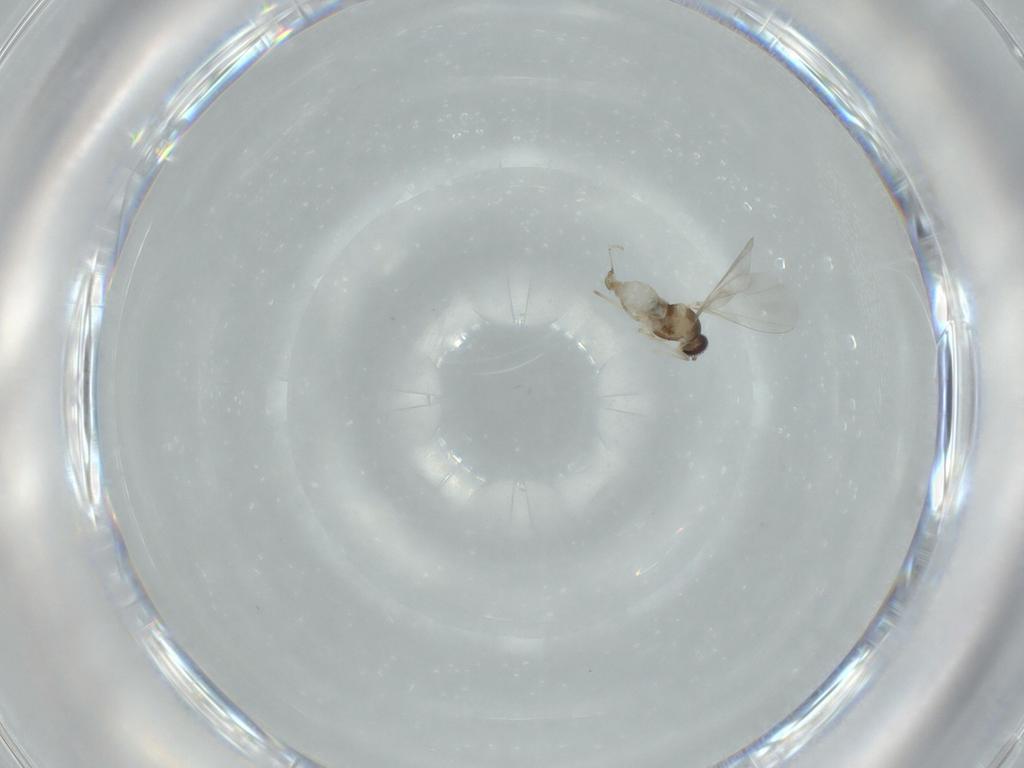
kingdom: Animalia
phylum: Arthropoda
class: Insecta
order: Diptera
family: Cecidomyiidae
